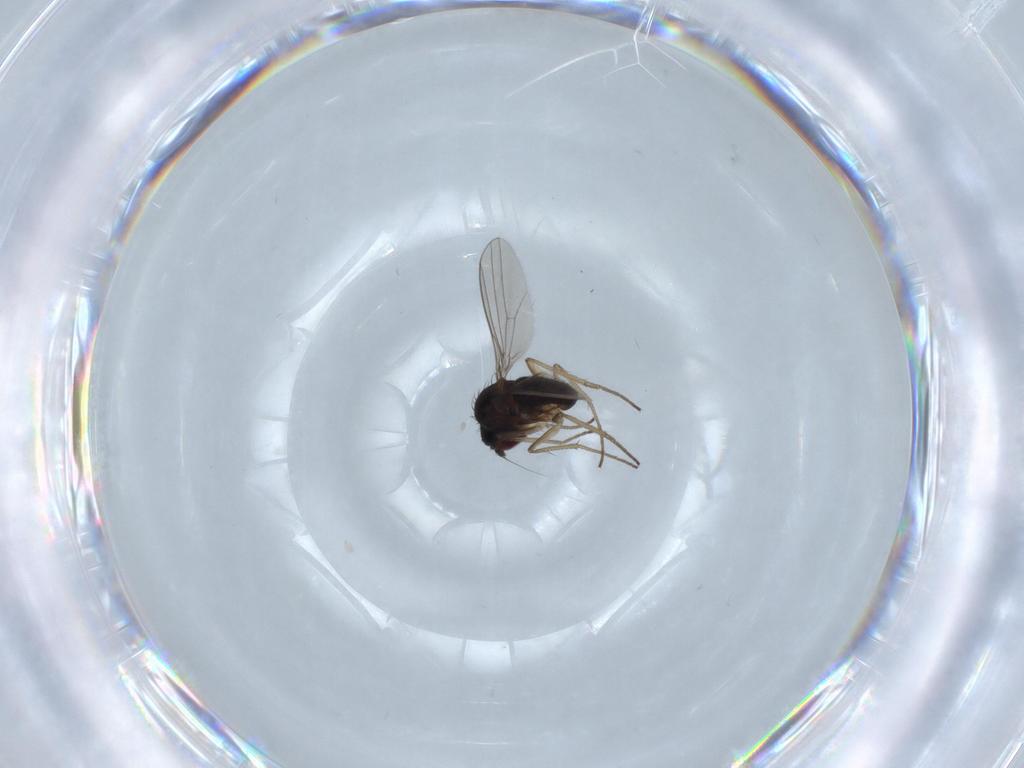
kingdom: Animalia
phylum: Arthropoda
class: Insecta
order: Diptera
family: Dolichopodidae
